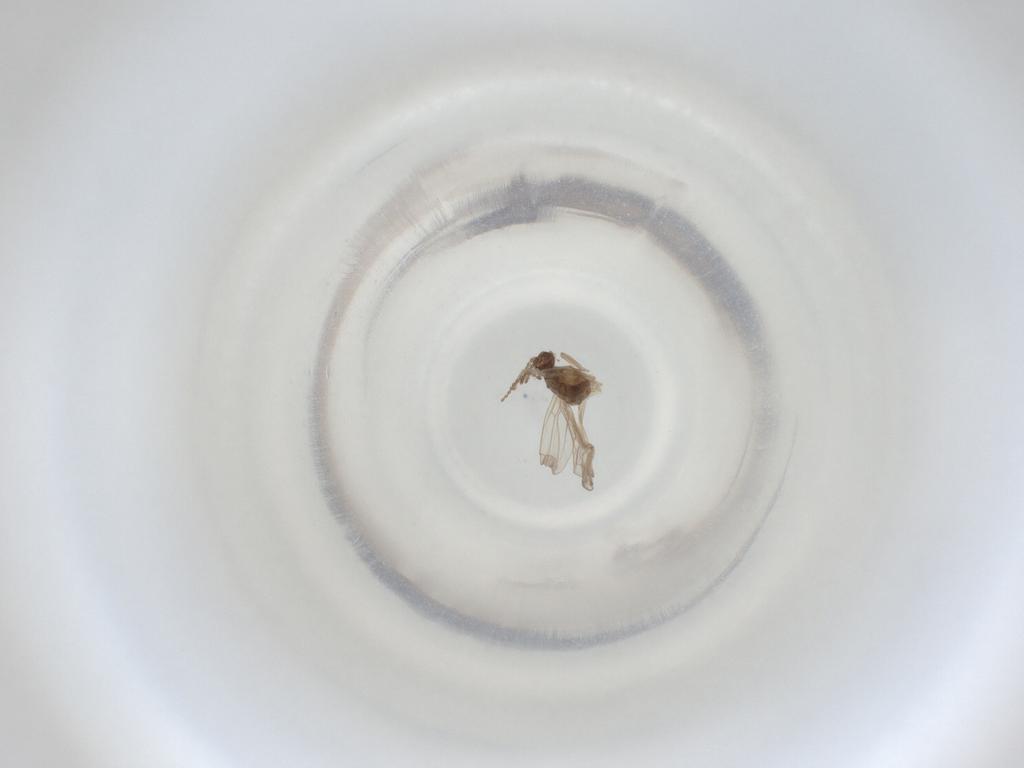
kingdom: Animalia
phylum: Arthropoda
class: Insecta
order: Diptera
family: Cecidomyiidae
